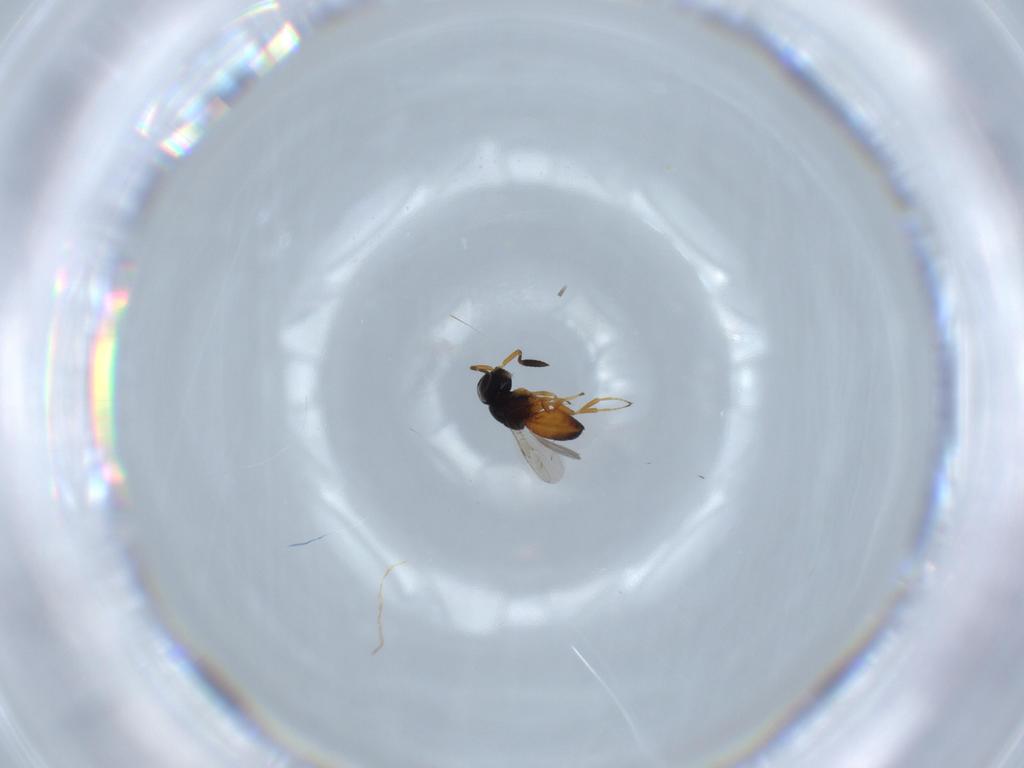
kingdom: Animalia
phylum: Arthropoda
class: Insecta
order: Hymenoptera
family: Scelionidae
